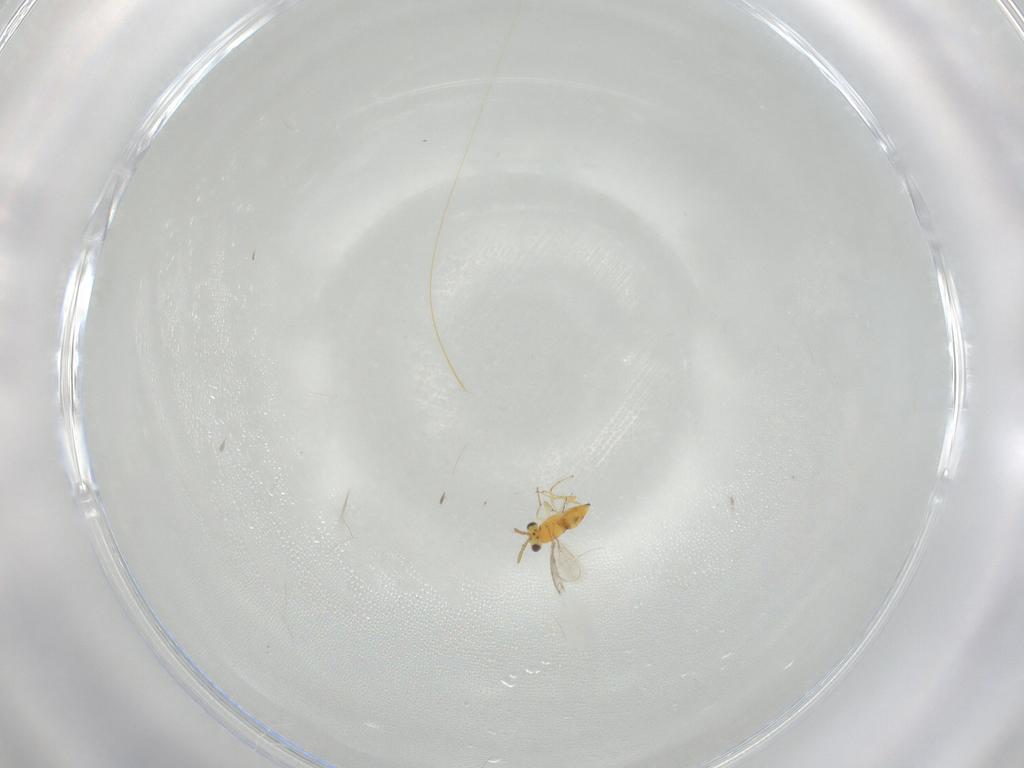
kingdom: Animalia
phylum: Arthropoda
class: Insecta
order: Hymenoptera
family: Aphelinidae
